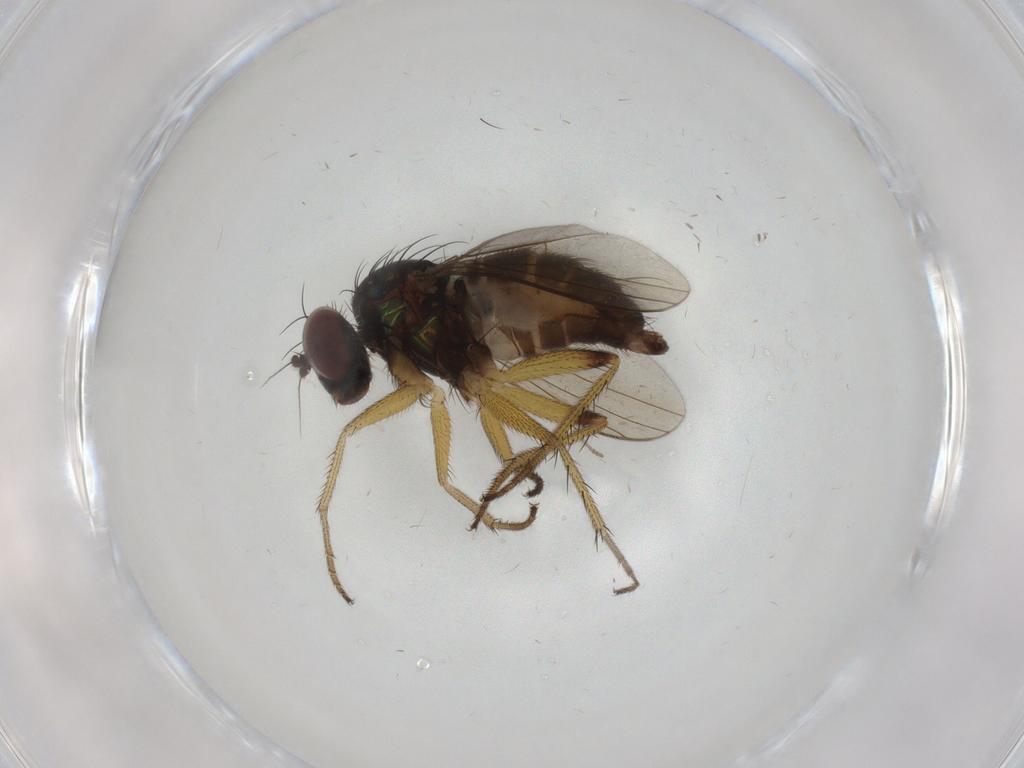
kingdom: Animalia
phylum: Arthropoda
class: Insecta
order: Diptera
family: Dolichopodidae
